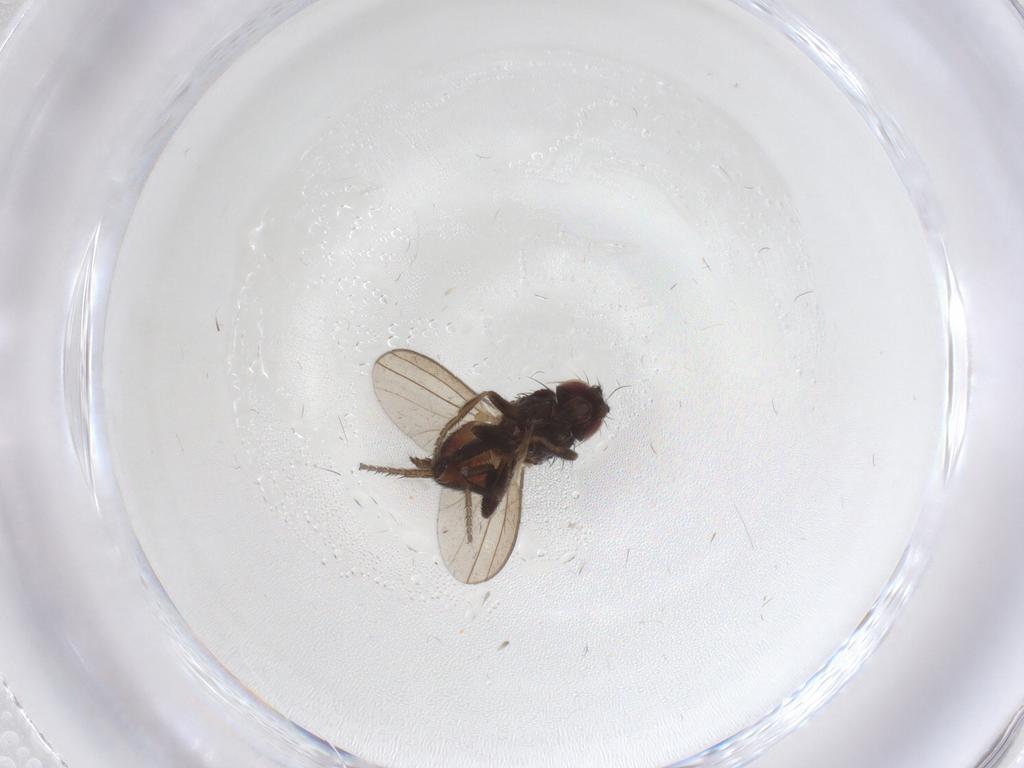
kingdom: Animalia
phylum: Arthropoda
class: Insecta
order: Diptera
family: Milichiidae
